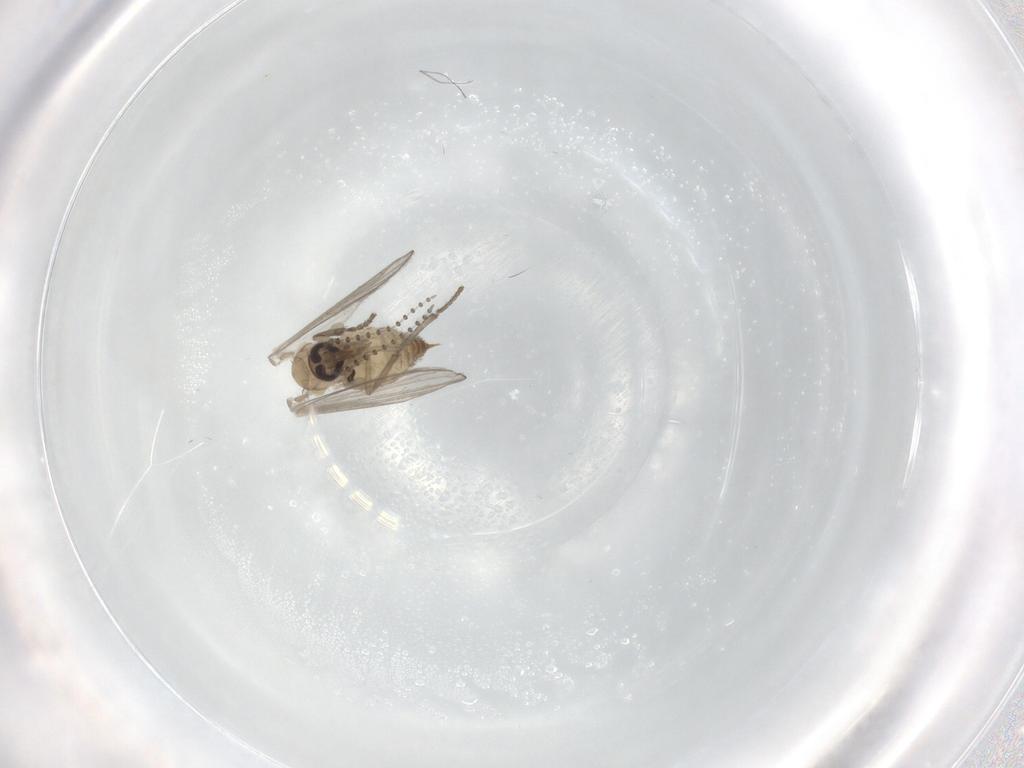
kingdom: Animalia
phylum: Arthropoda
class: Insecta
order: Diptera
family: Psychodidae
